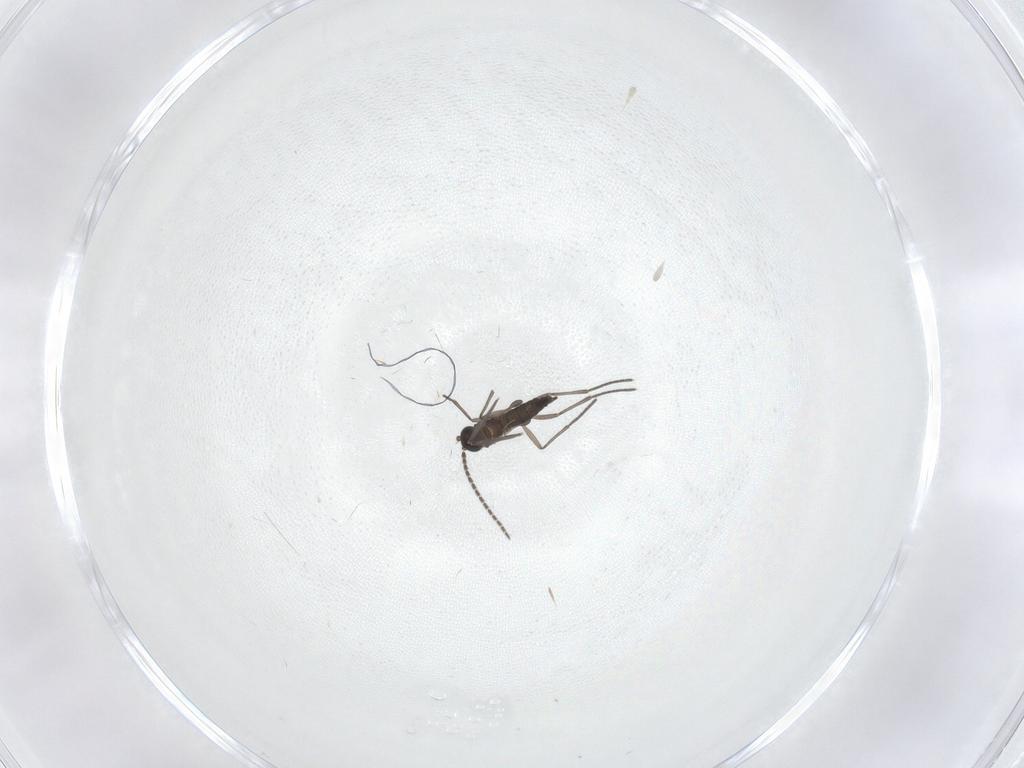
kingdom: Animalia
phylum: Arthropoda
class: Insecta
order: Diptera
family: Sciaridae
